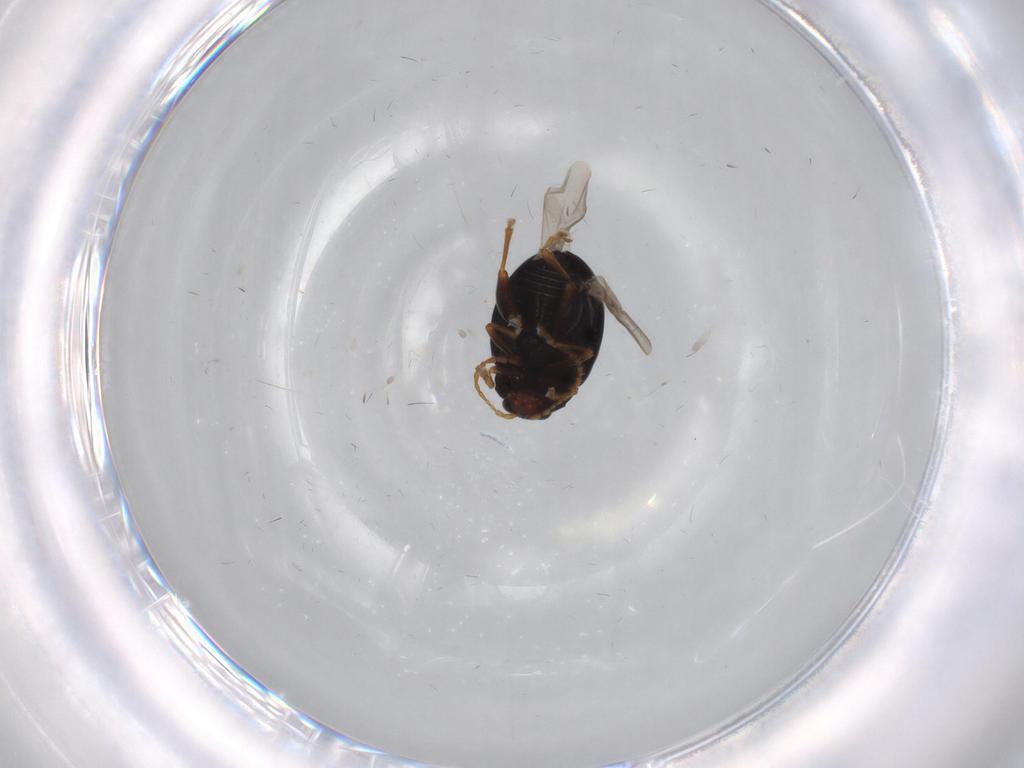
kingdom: Animalia
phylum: Arthropoda
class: Insecta
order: Coleoptera
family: Chrysomelidae
